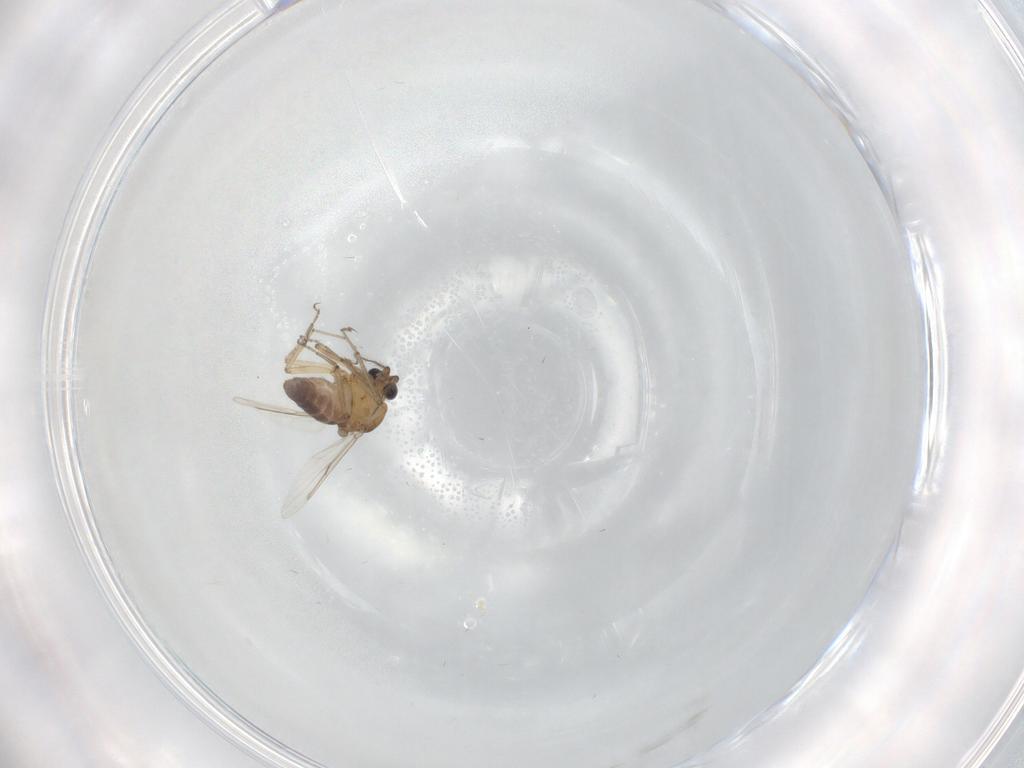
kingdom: Animalia
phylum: Arthropoda
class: Insecta
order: Diptera
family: Ceratopogonidae
